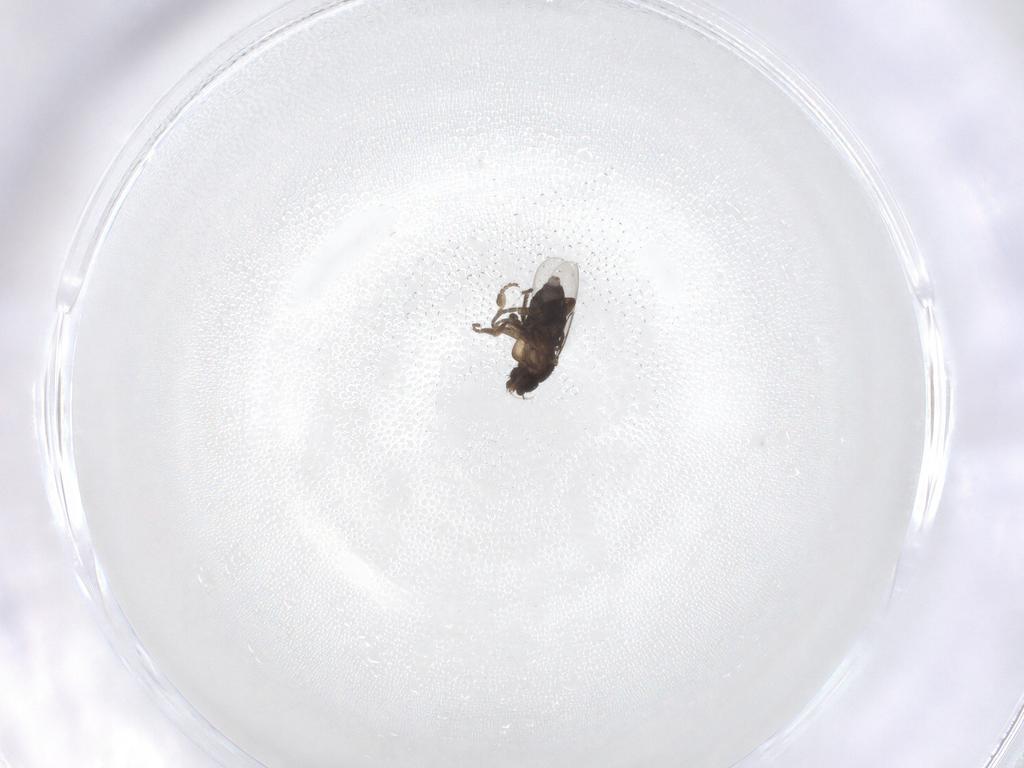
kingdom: Animalia
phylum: Arthropoda
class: Insecta
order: Diptera
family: Phoridae
